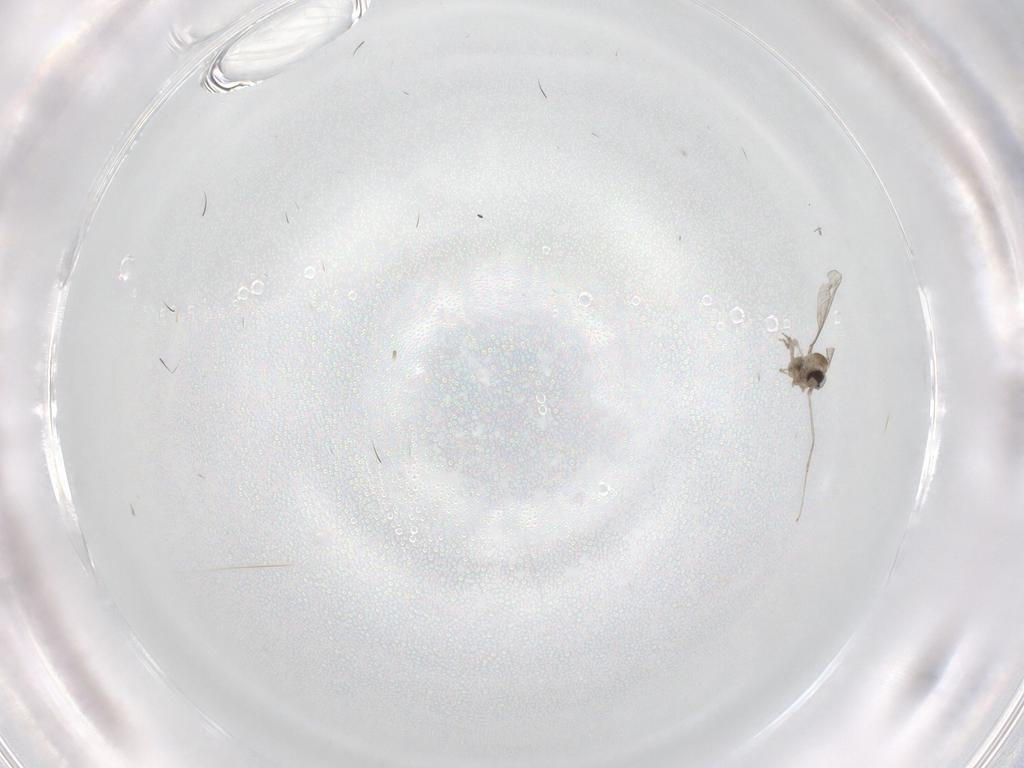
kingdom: Animalia
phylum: Arthropoda
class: Insecta
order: Diptera
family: Cecidomyiidae
